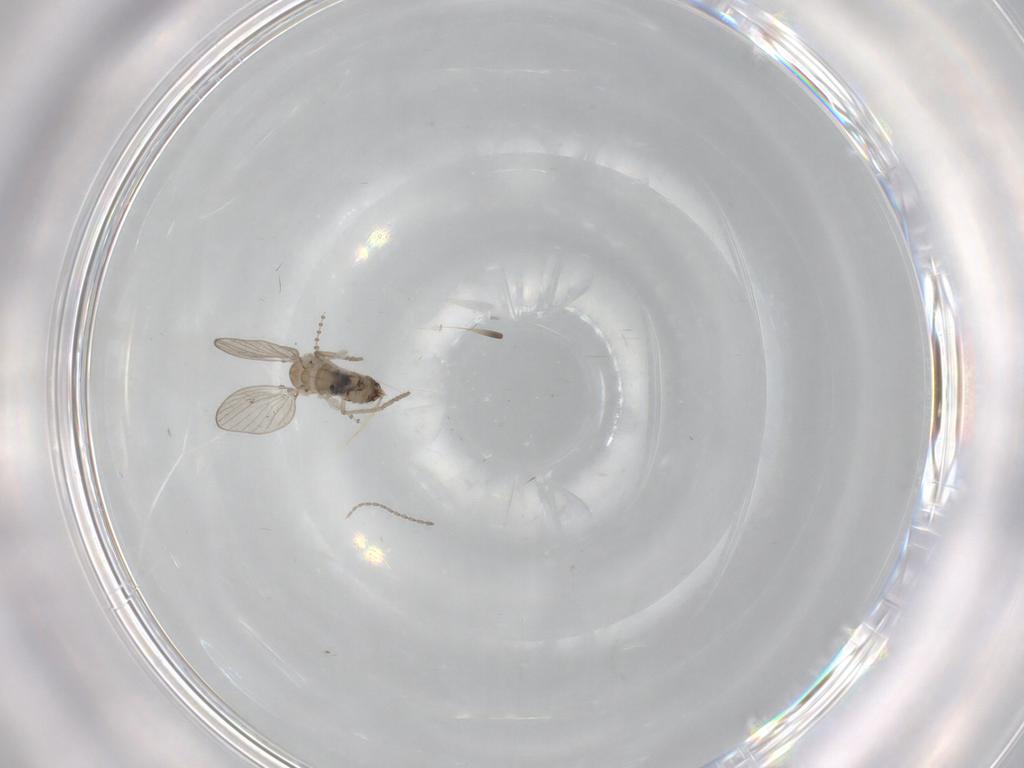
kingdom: Animalia
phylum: Arthropoda
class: Insecta
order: Diptera
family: Psychodidae
